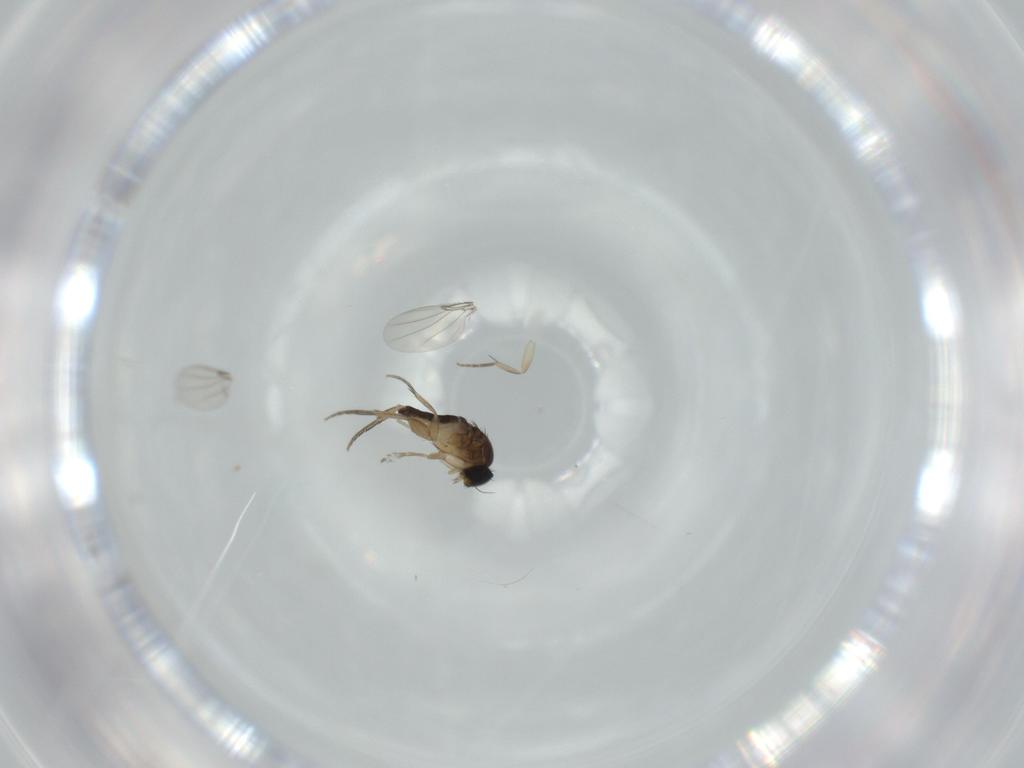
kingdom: Animalia
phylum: Arthropoda
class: Insecta
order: Diptera
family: Phoridae
